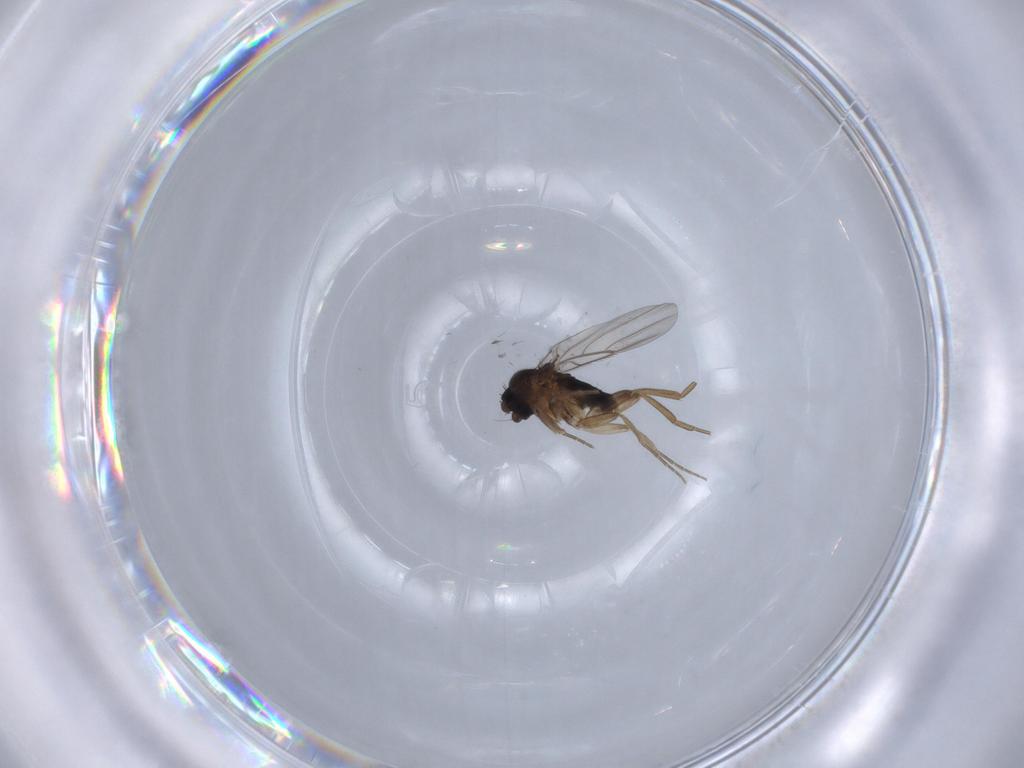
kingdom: Animalia
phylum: Arthropoda
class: Insecta
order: Diptera
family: Phoridae
